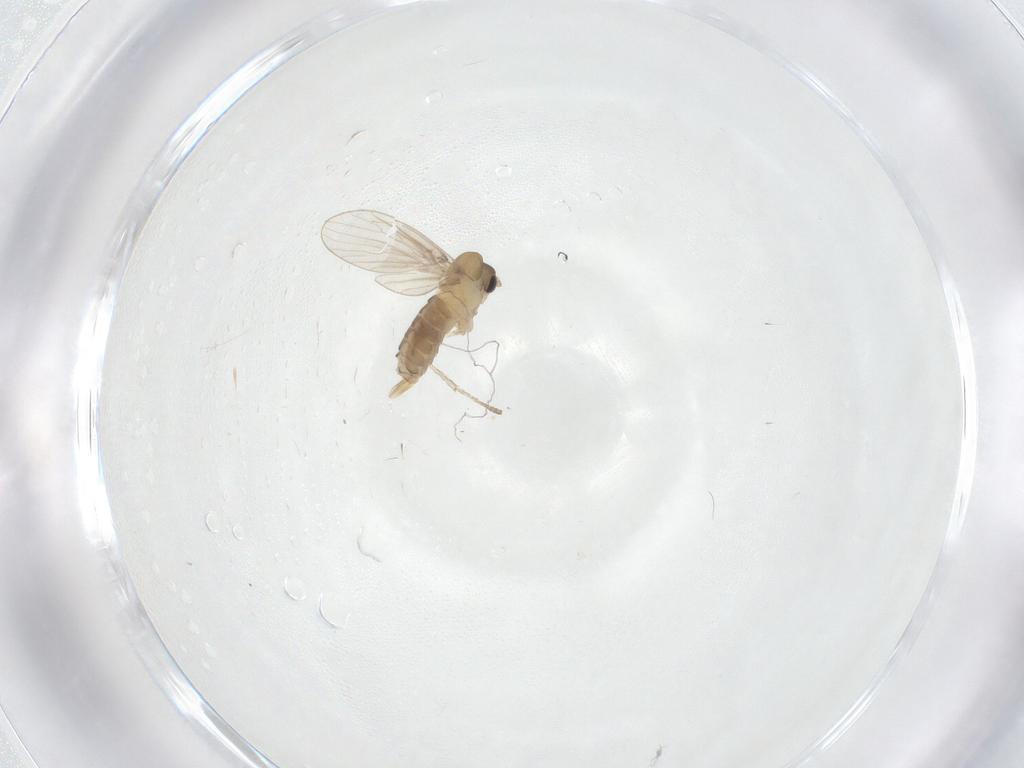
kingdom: Animalia
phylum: Arthropoda
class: Insecta
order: Diptera
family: Psychodidae
